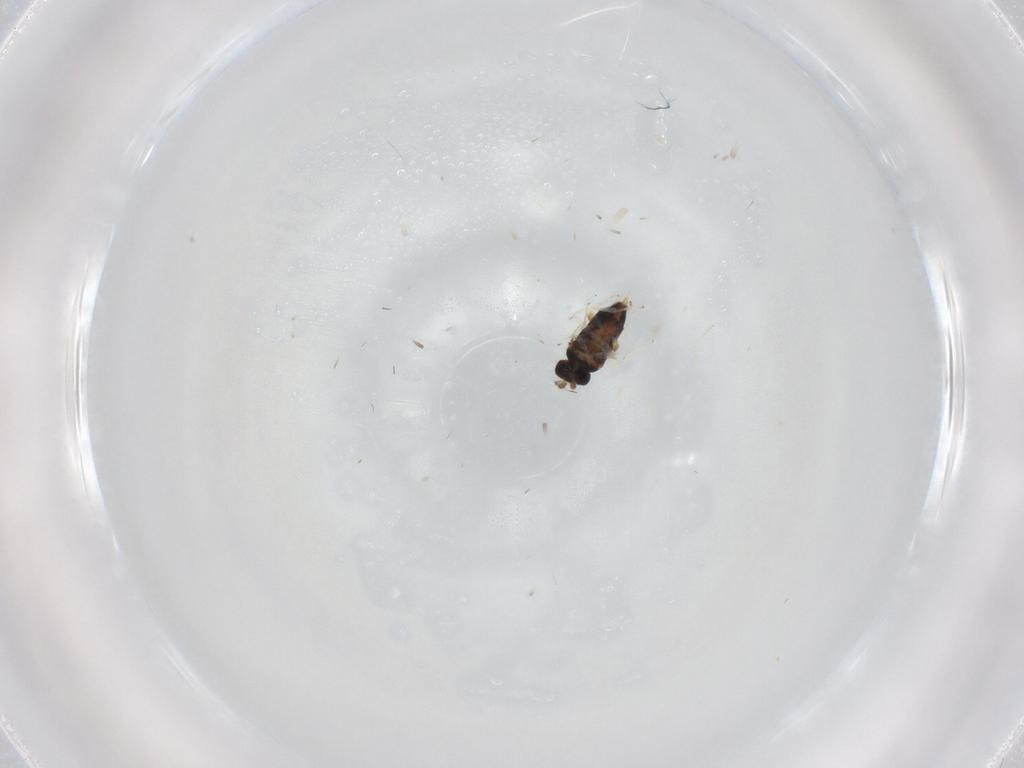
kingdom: Animalia
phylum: Arthropoda
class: Insecta
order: Hymenoptera
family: Aphelinidae
